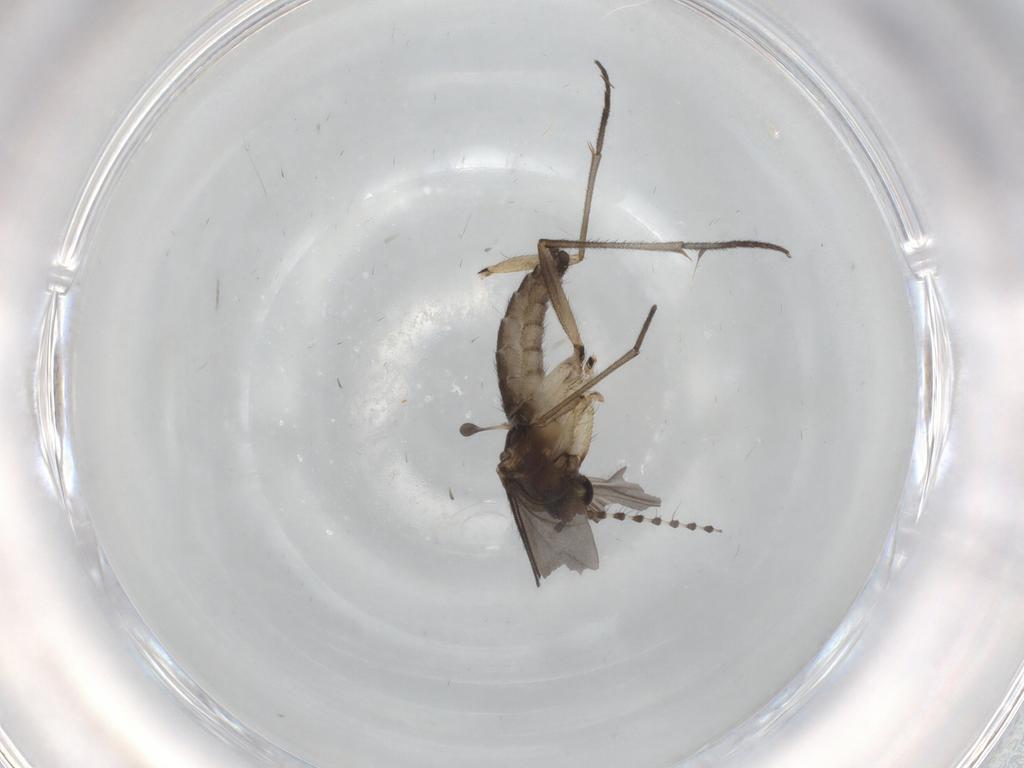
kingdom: Animalia
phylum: Arthropoda
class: Insecta
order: Diptera
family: Sciaridae
